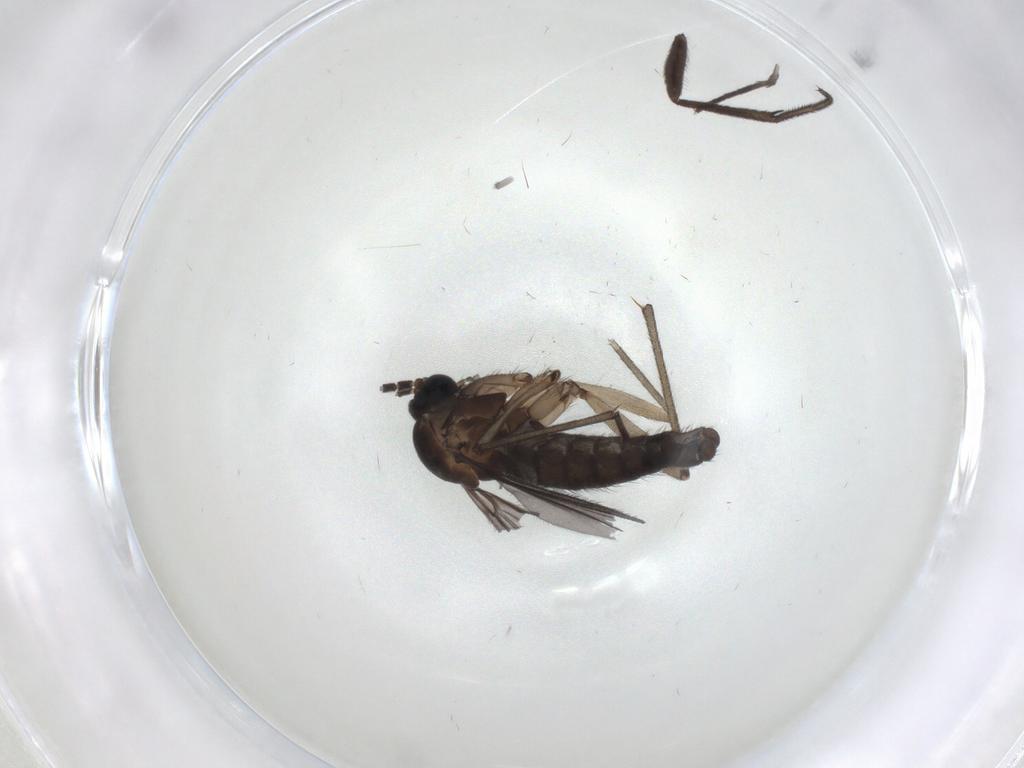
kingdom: Animalia
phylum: Arthropoda
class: Insecta
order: Diptera
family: Sciaridae
